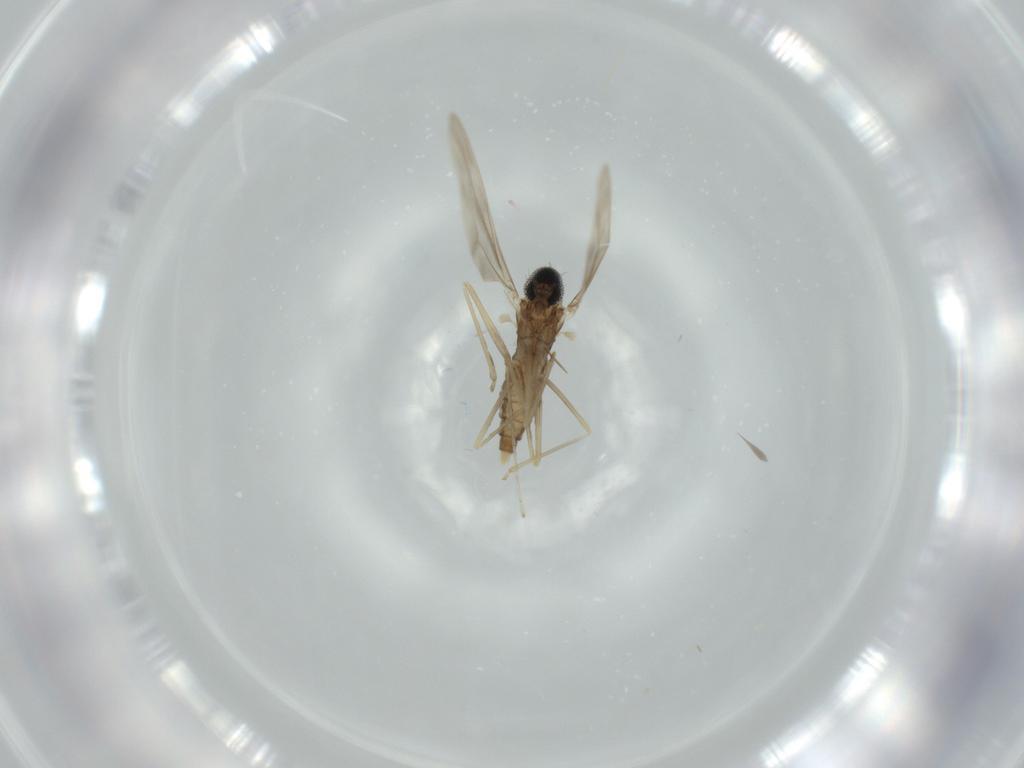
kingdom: Animalia
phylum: Arthropoda
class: Insecta
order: Diptera
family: Cecidomyiidae
